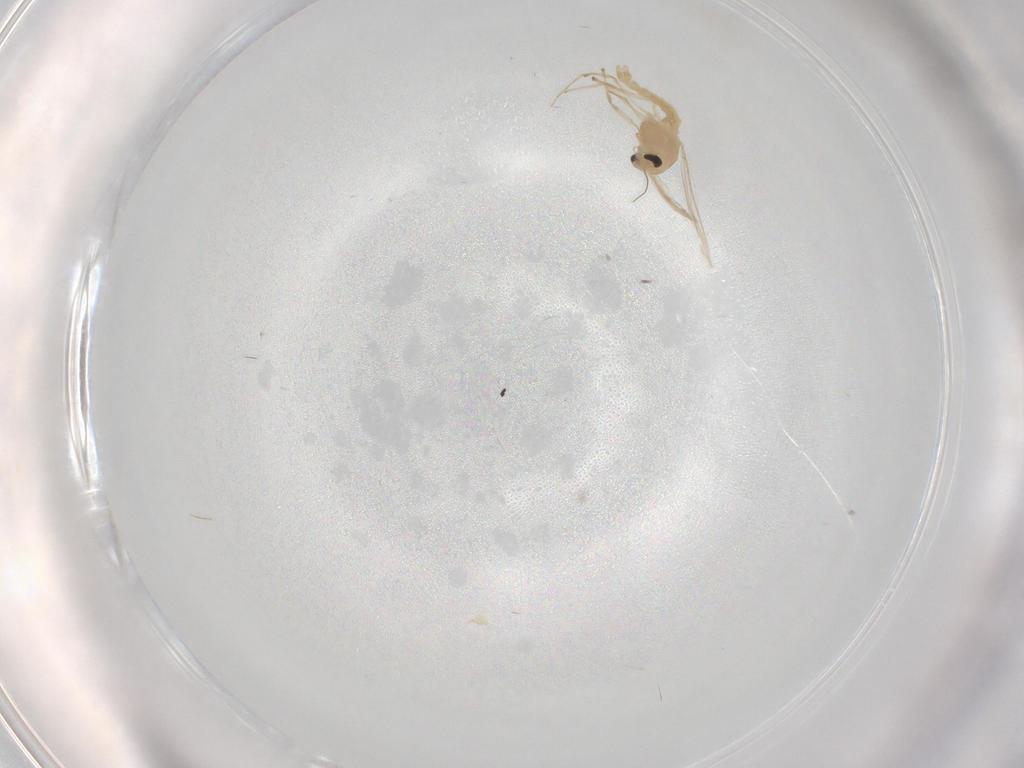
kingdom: Animalia
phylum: Arthropoda
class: Insecta
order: Diptera
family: Chironomidae
